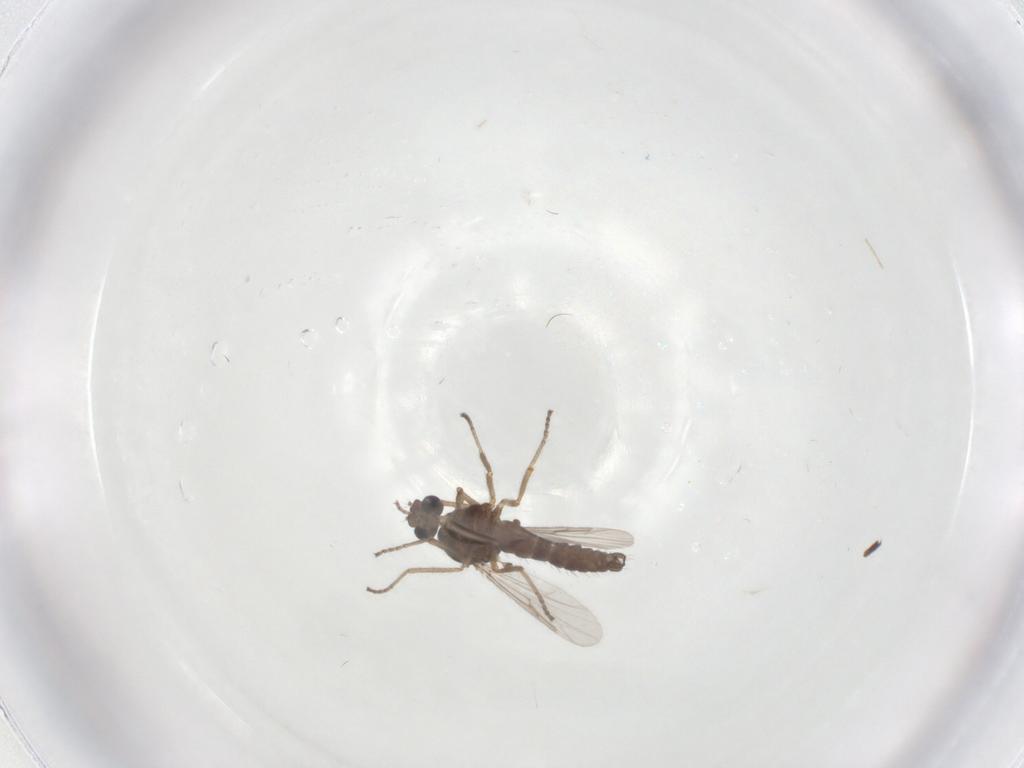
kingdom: Animalia
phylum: Arthropoda
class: Insecta
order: Diptera
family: Ceratopogonidae
